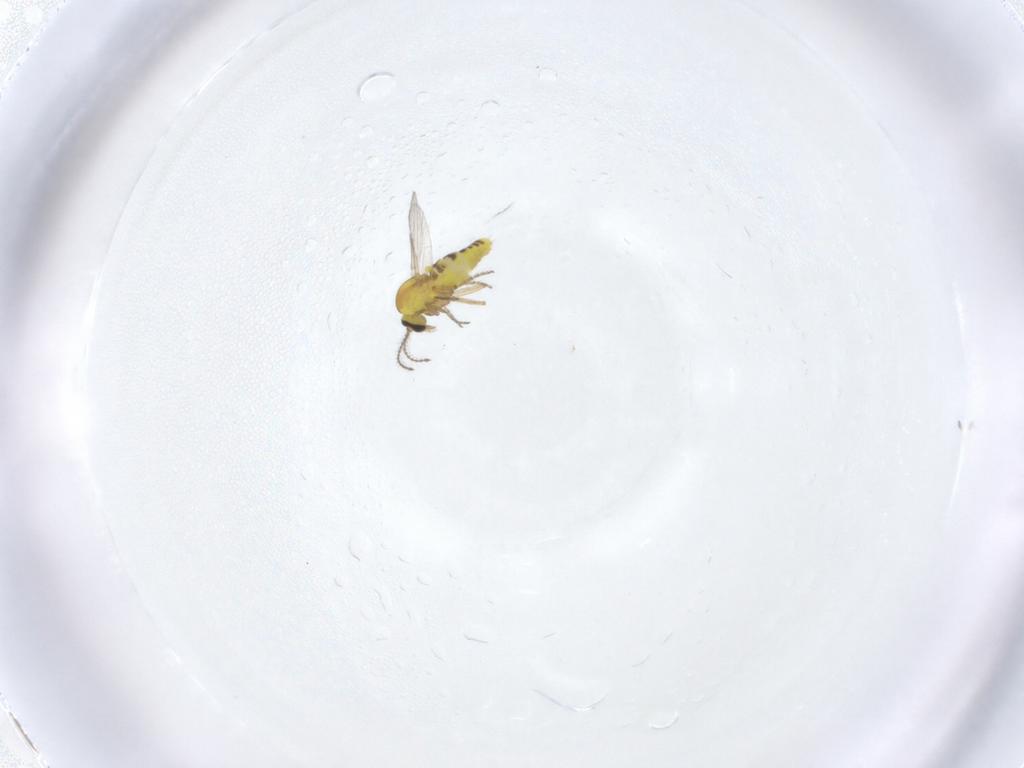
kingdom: Animalia
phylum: Arthropoda
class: Insecta
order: Diptera
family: Ceratopogonidae
